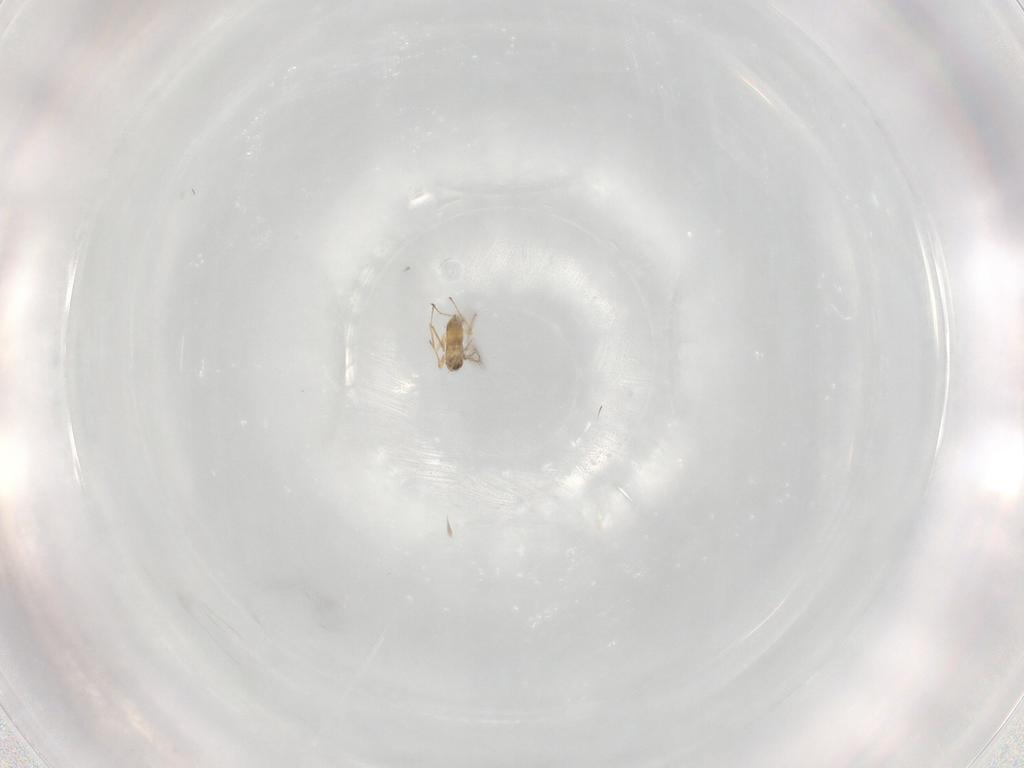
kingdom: Animalia
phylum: Arthropoda
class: Insecta
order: Hymenoptera
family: Mymaridae
